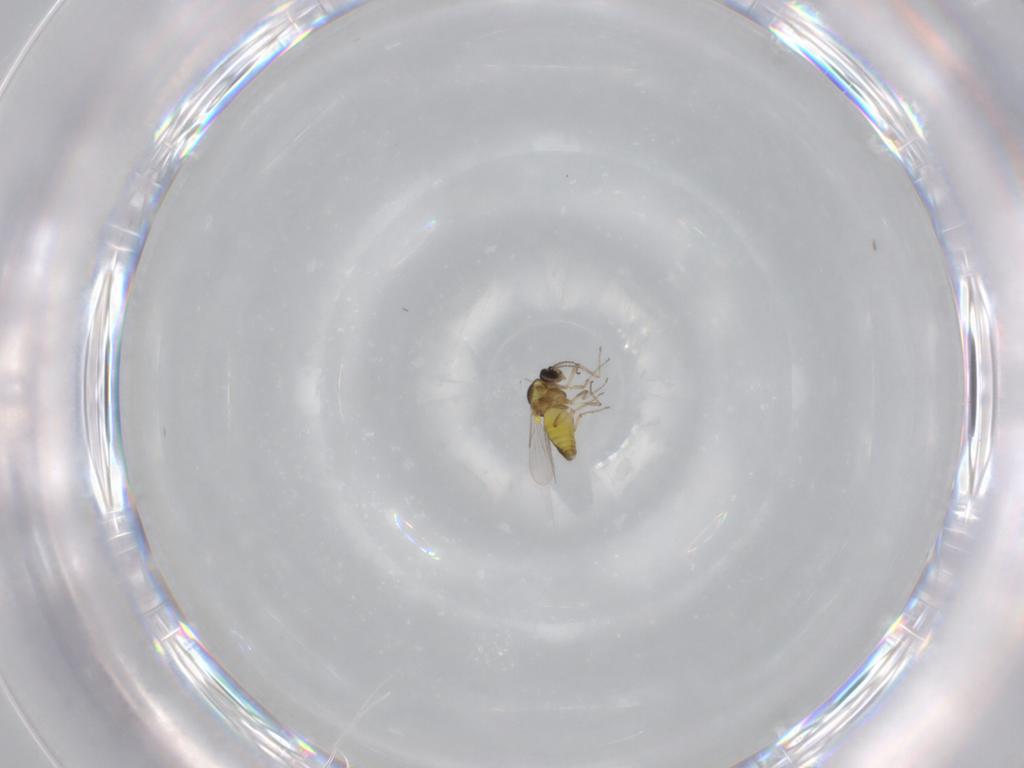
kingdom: Animalia
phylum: Arthropoda
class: Insecta
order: Diptera
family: Ceratopogonidae
